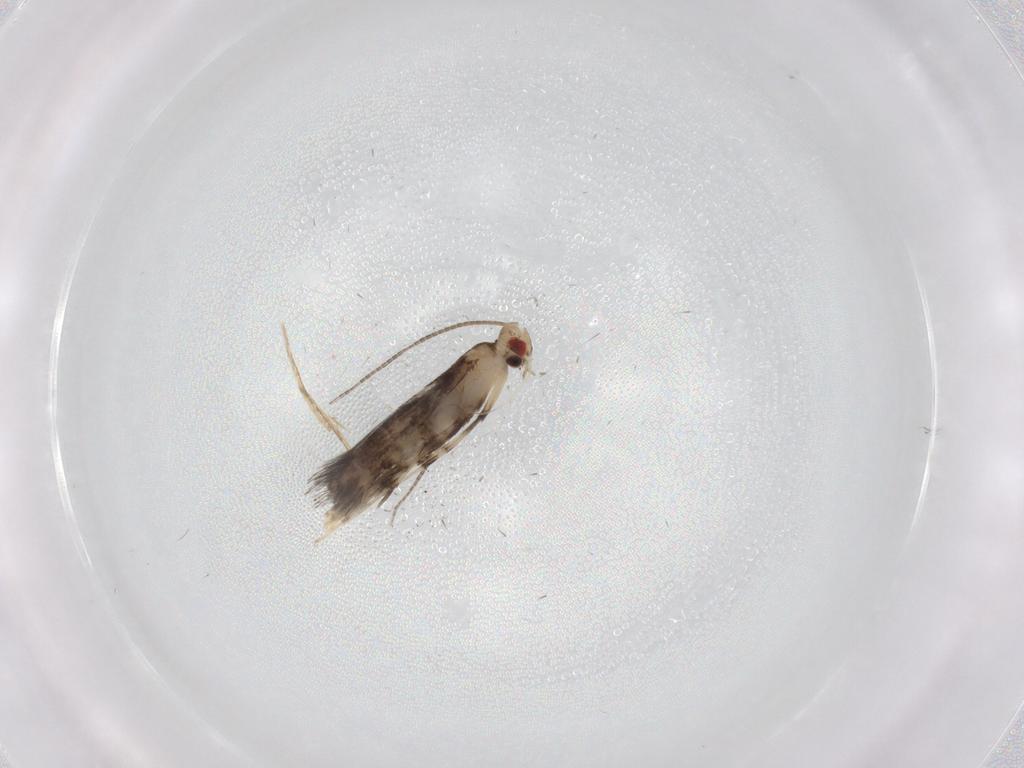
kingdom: Animalia
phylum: Arthropoda
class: Insecta
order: Lepidoptera
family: Gracillariidae
